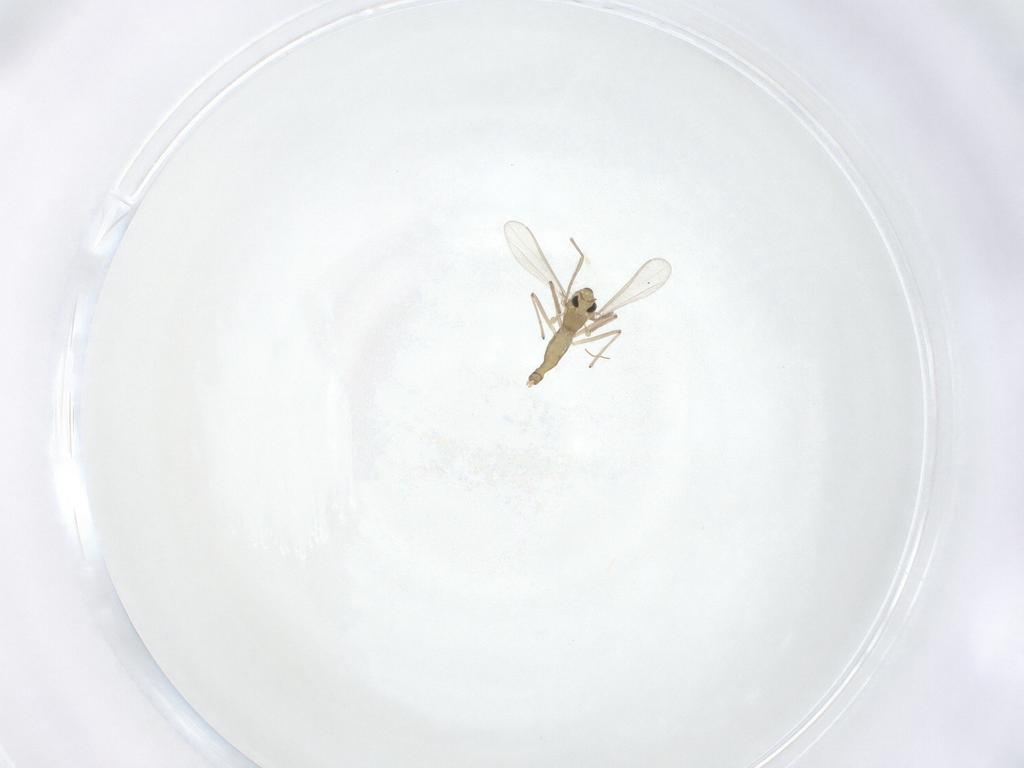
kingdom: Animalia
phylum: Arthropoda
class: Insecta
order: Diptera
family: Chironomidae
